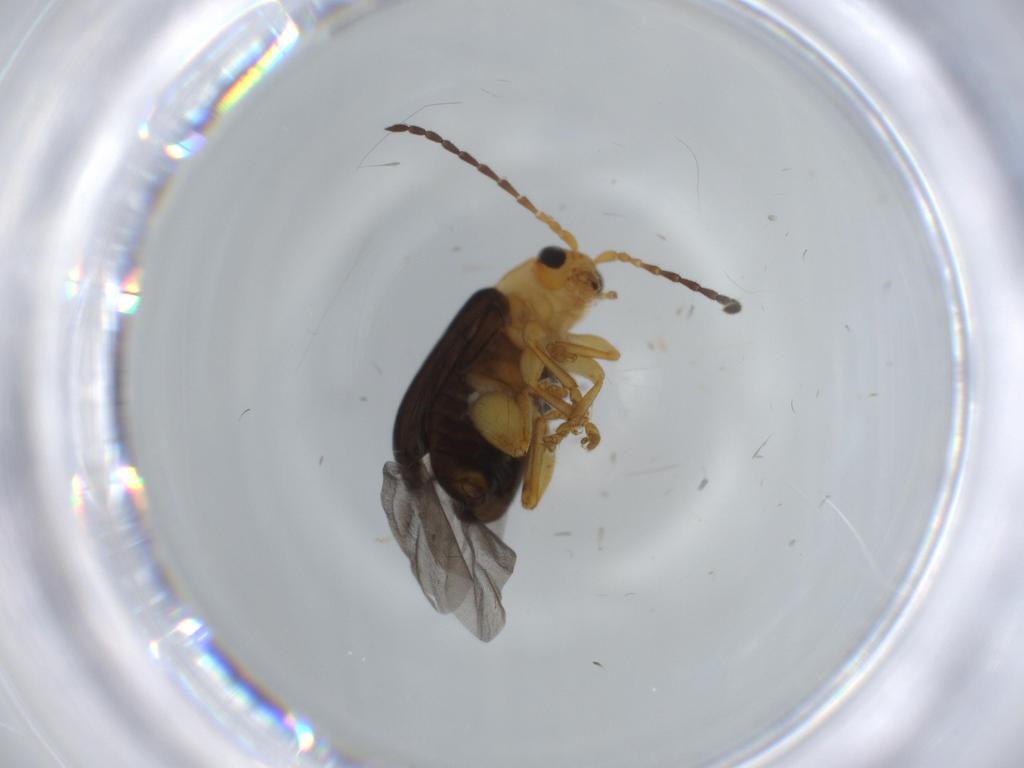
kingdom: Animalia
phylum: Arthropoda
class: Insecta
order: Coleoptera
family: Chrysomelidae
